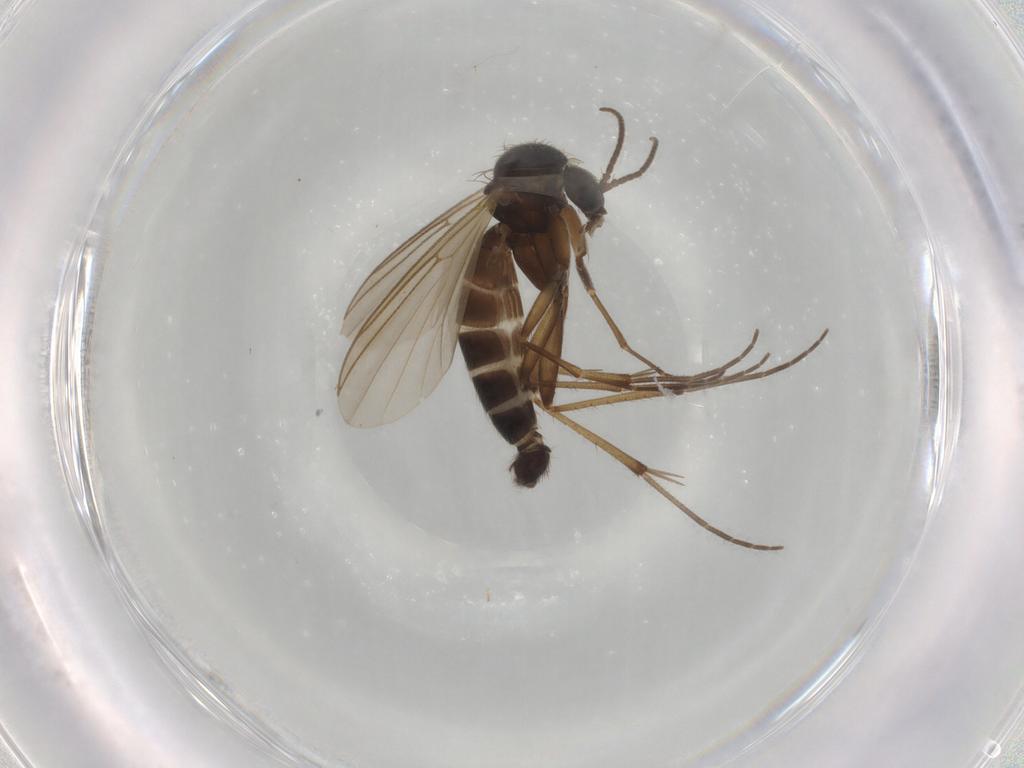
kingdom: Animalia
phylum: Arthropoda
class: Insecta
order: Diptera
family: Mycetophilidae
